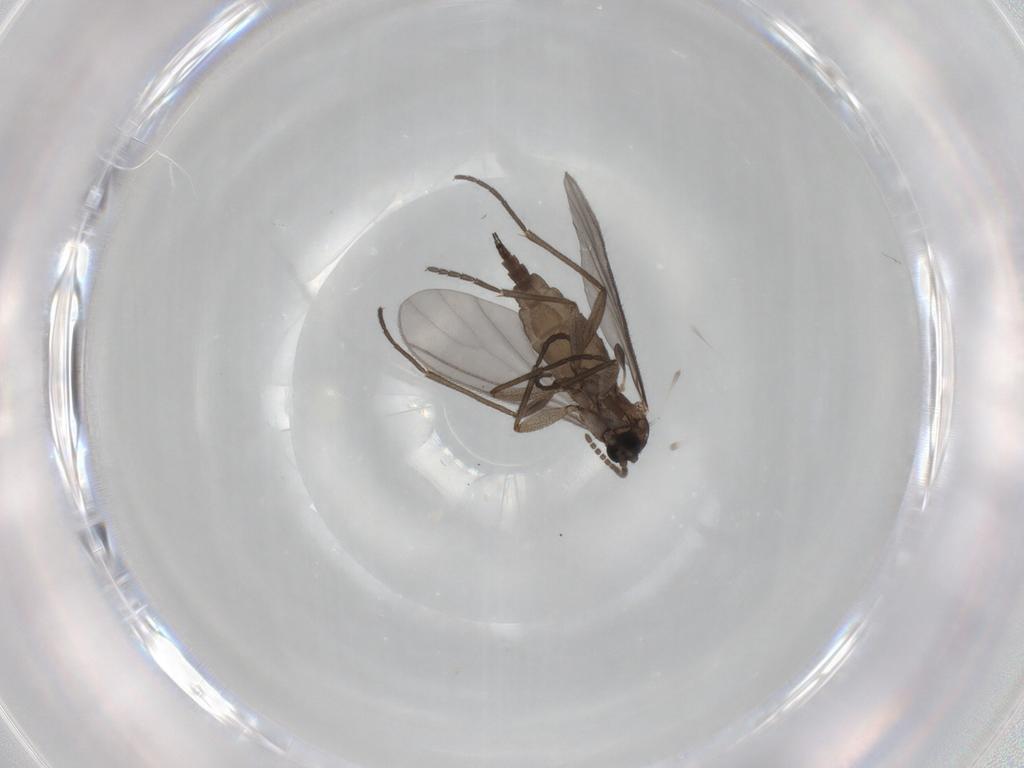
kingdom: Animalia
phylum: Arthropoda
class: Insecta
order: Diptera
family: Sciaridae
